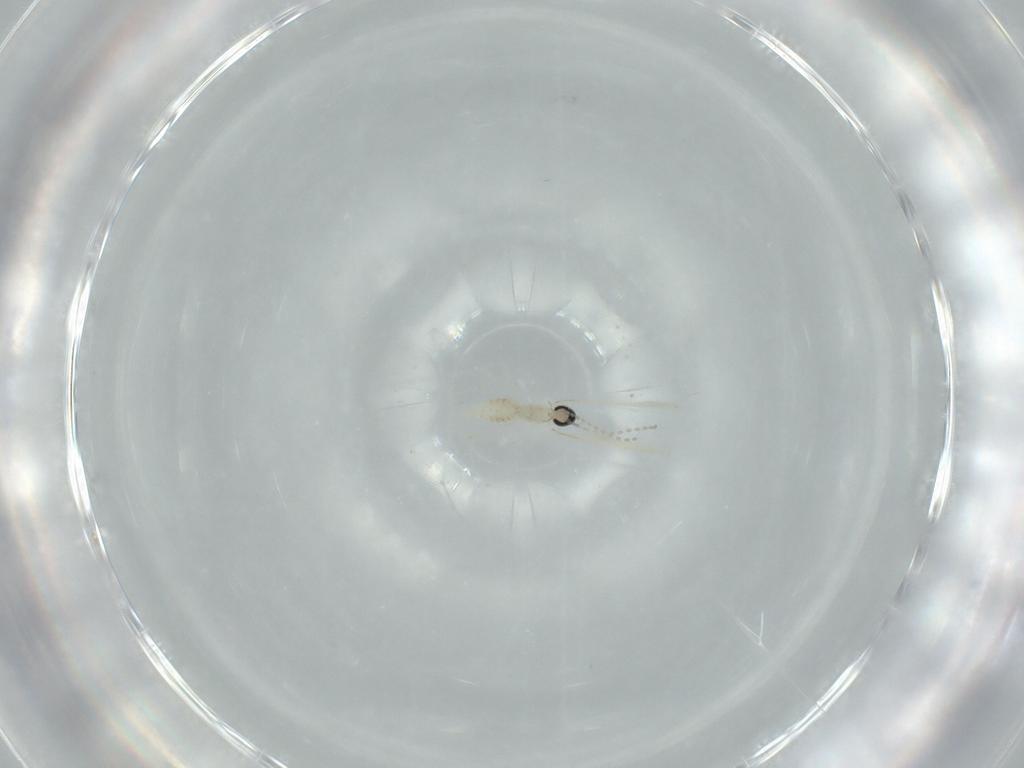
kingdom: Animalia
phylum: Arthropoda
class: Insecta
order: Diptera
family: Cecidomyiidae
